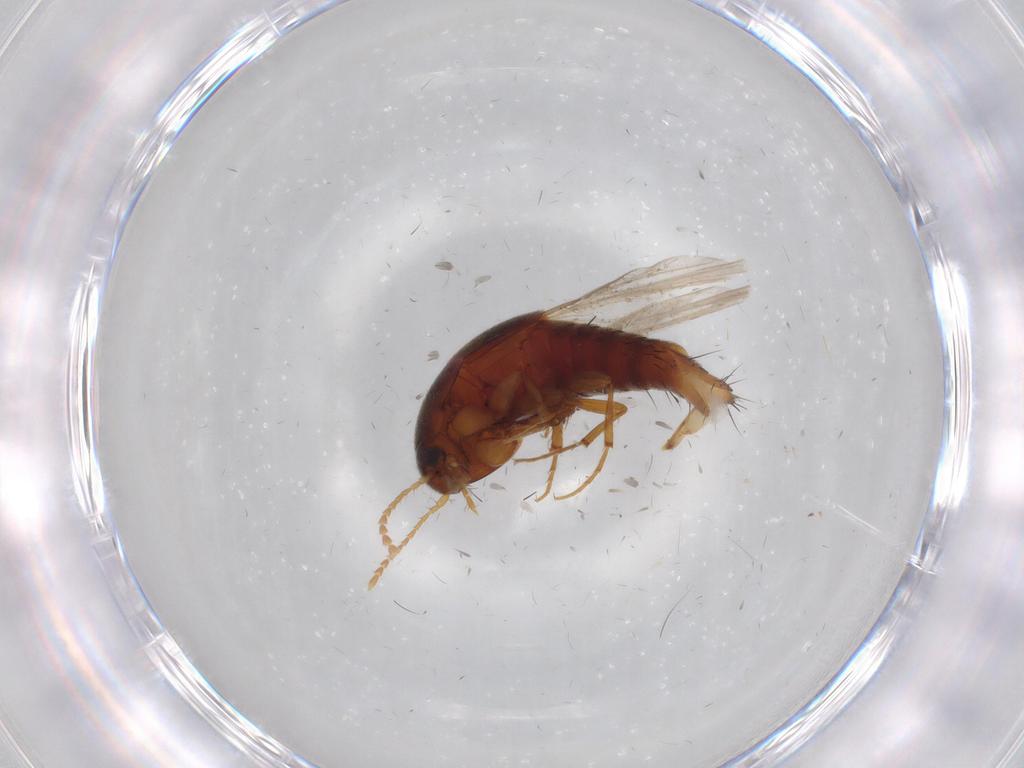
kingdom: Animalia
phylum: Arthropoda
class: Insecta
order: Coleoptera
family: Staphylinidae
